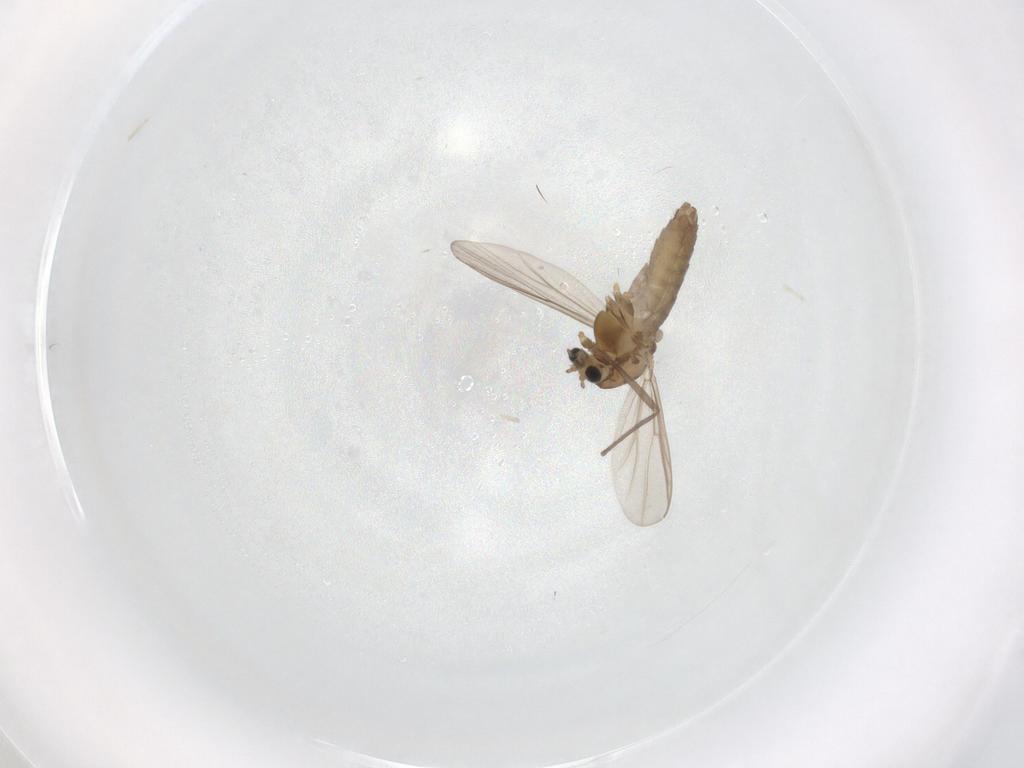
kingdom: Animalia
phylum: Arthropoda
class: Insecta
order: Diptera
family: Chironomidae
